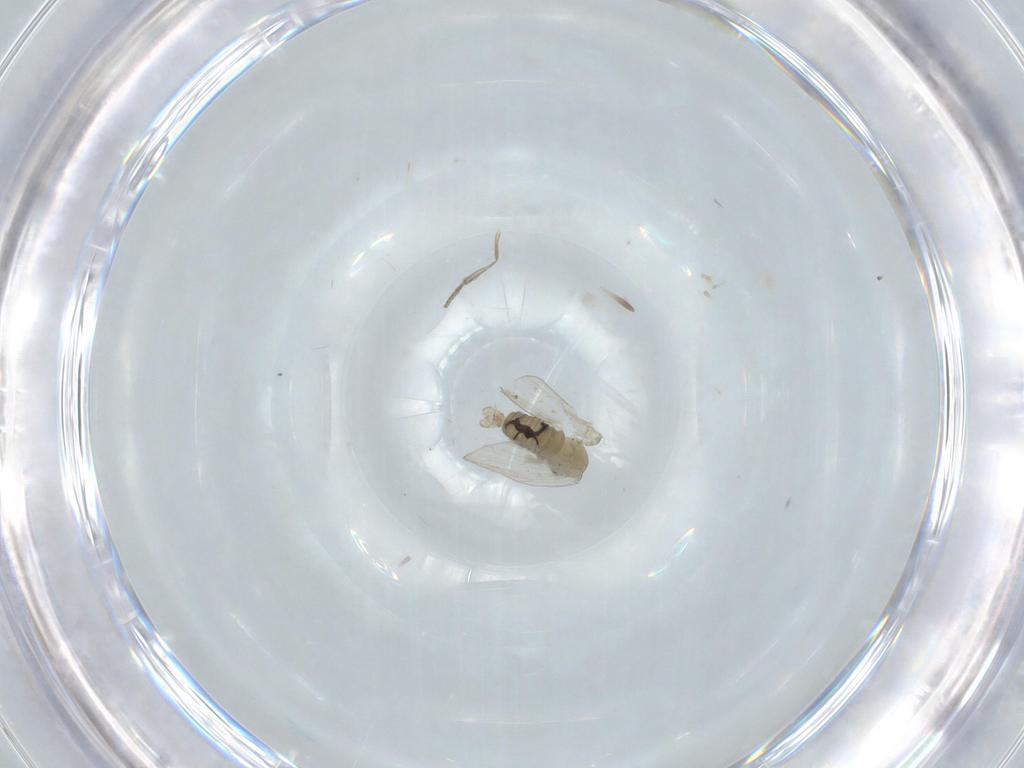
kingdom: Animalia
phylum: Arthropoda
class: Insecta
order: Diptera
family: Psychodidae
